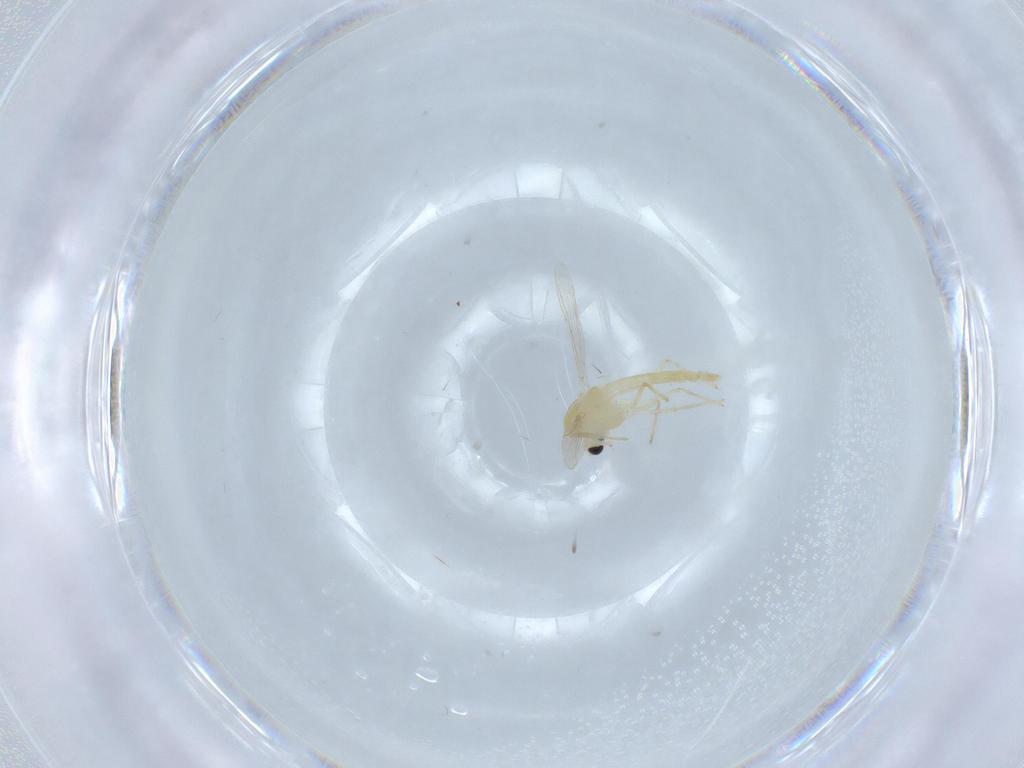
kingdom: Animalia
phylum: Arthropoda
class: Insecta
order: Diptera
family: Chironomidae
